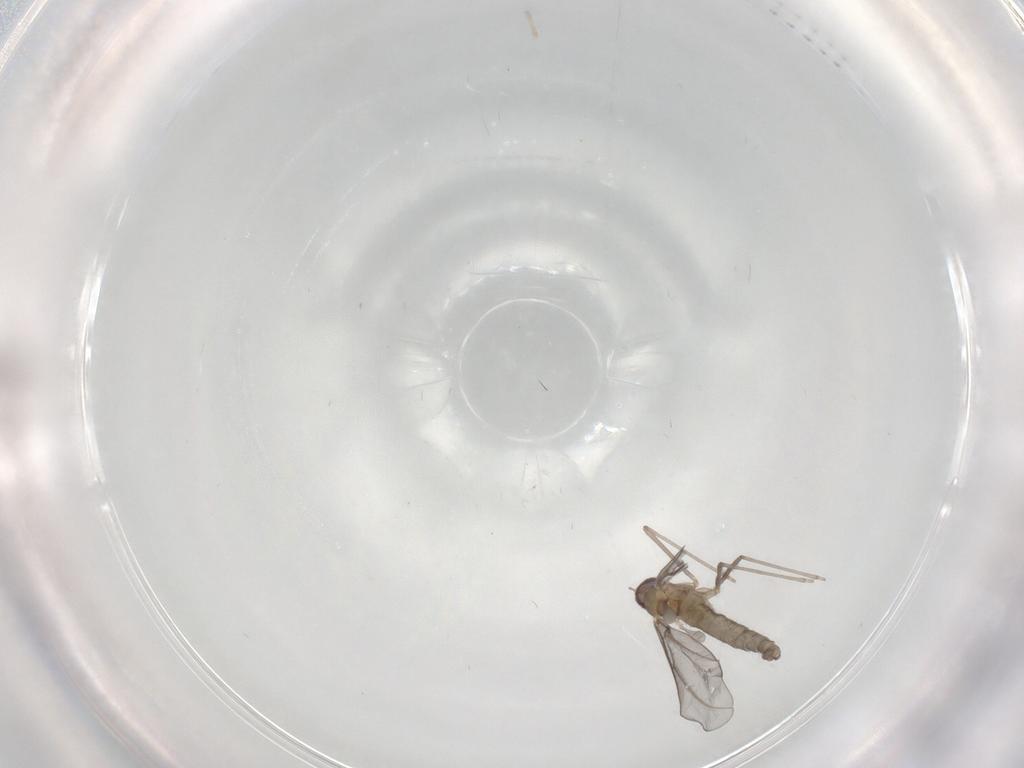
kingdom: Animalia
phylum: Arthropoda
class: Insecta
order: Diptera
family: Cecidomyiidae
